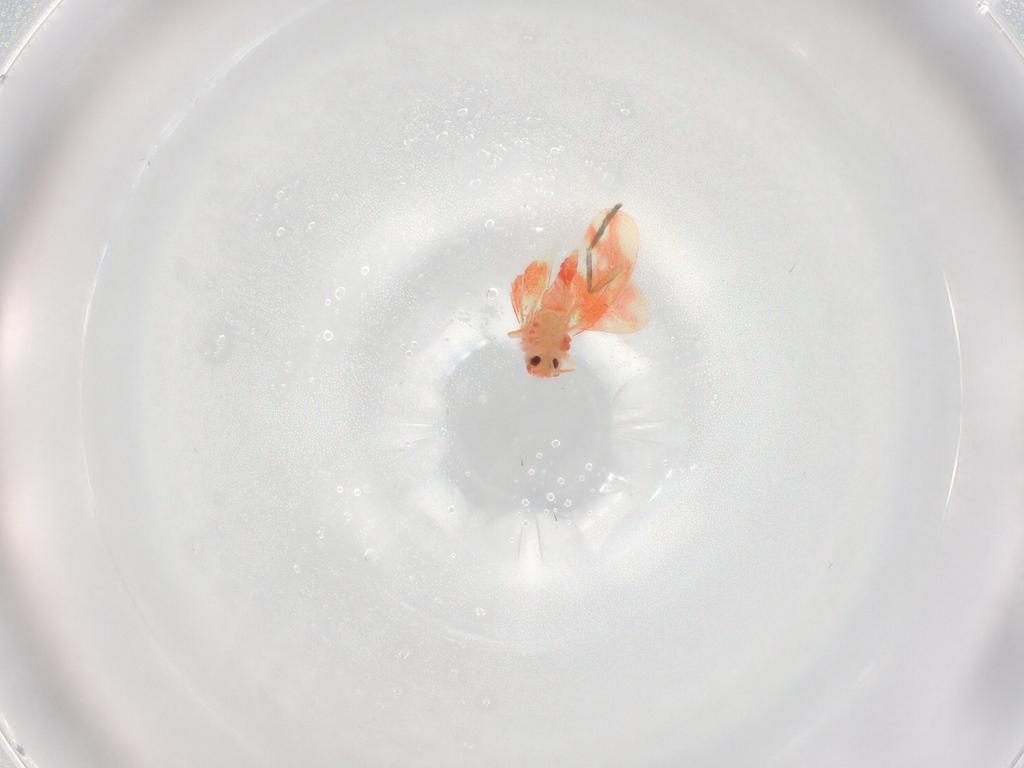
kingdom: Animalia
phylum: Arthropoda
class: Insecta
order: Hemiptera
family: Aleyrodidae
